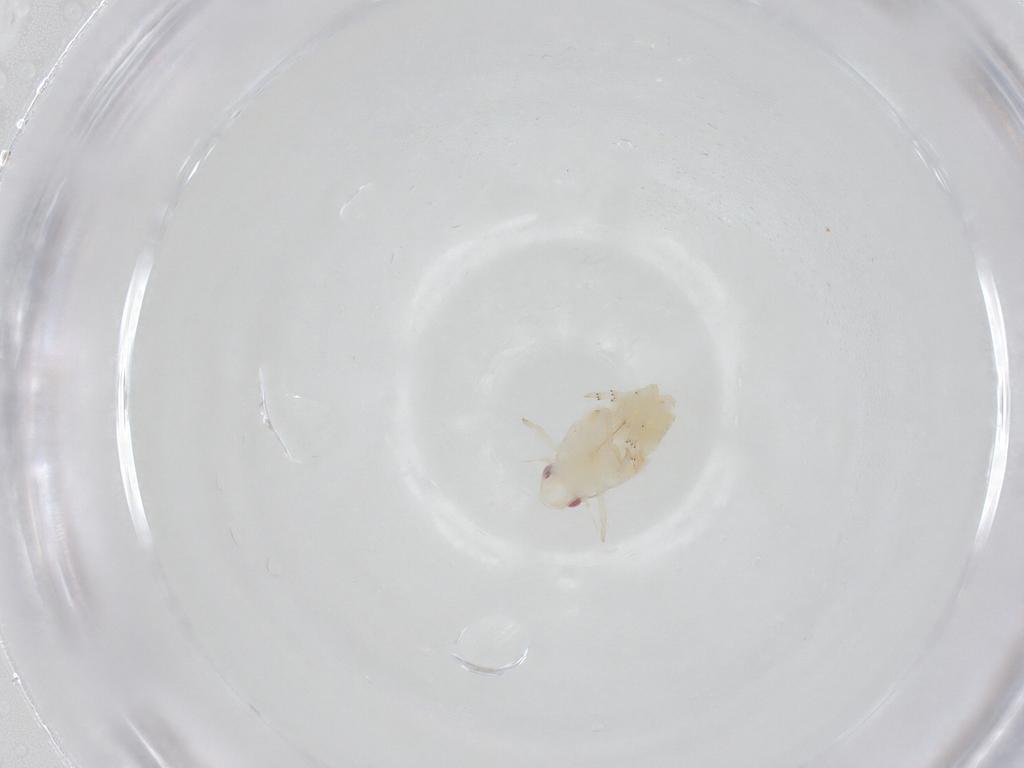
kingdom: Animalia
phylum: Arthropoda
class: Insecta
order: Hemiptera
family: Flatidae
